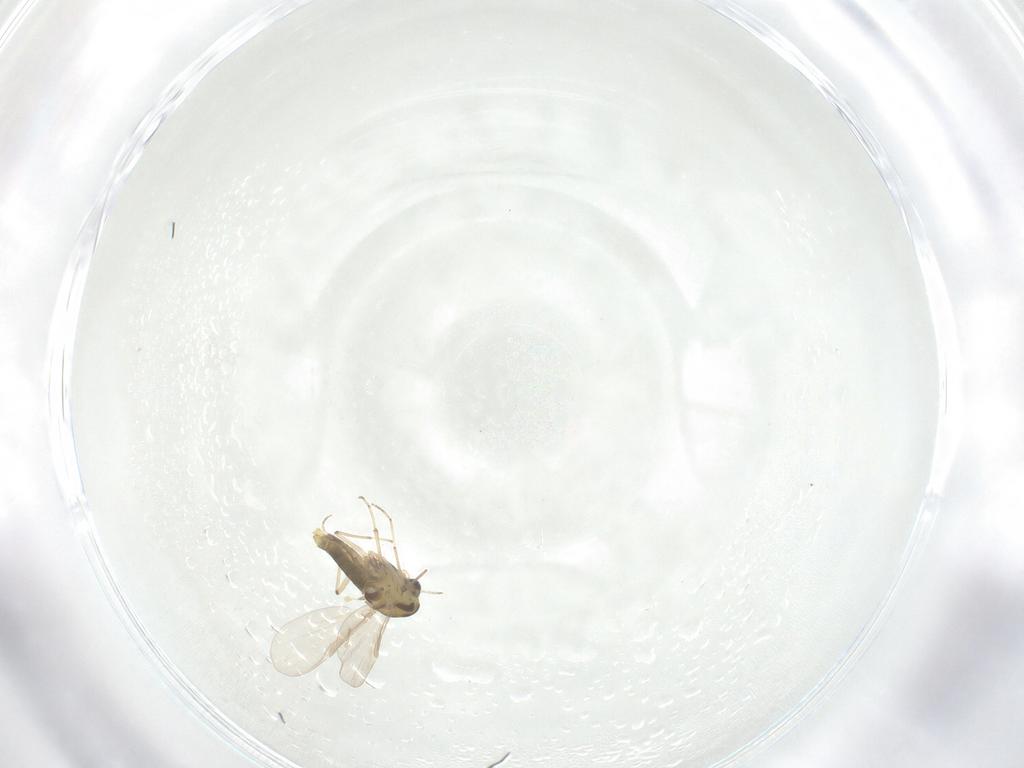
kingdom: Animalia
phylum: Arthropoda
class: Insecta
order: Diptera
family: Chironomidae
